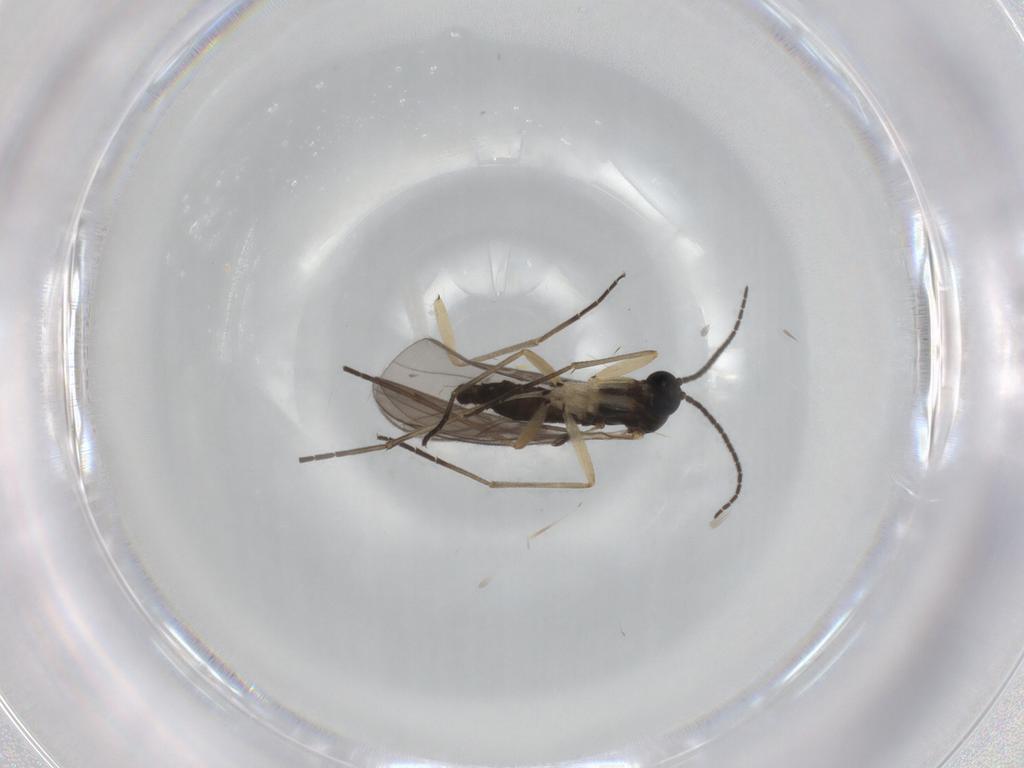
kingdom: Animalia
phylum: Arthropoda
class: Insecta
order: Diptera
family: Sciaridae
